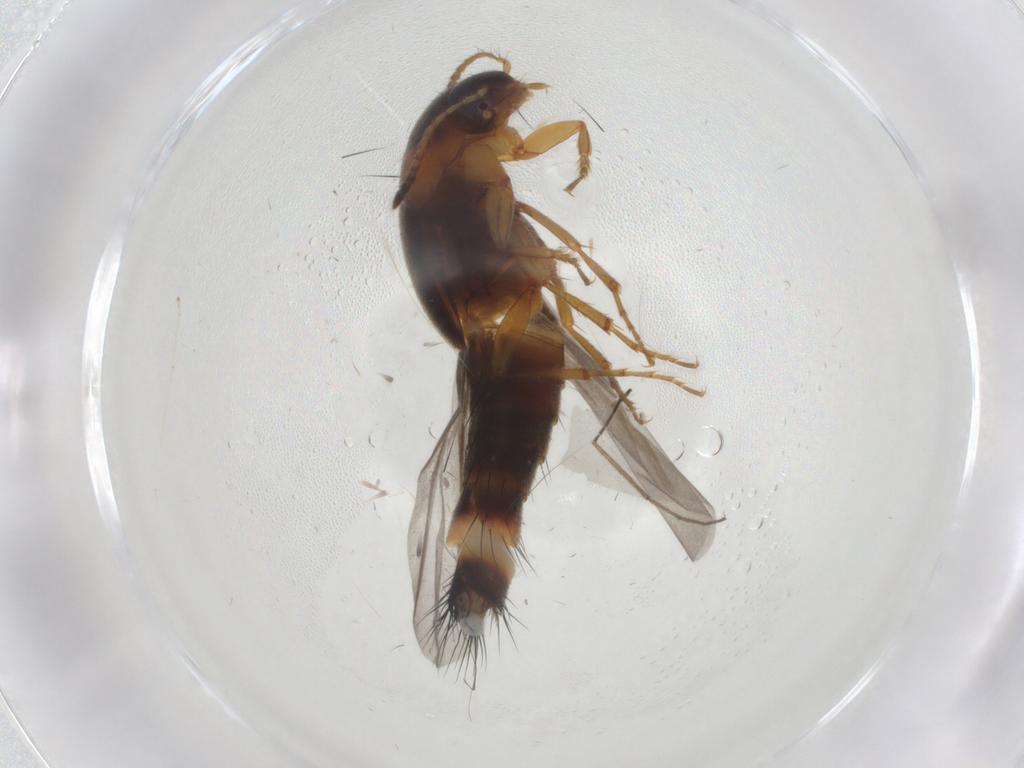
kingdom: Animalia
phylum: Arthropoda
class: Insecta
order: Coleoptera
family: Staphylinidae
